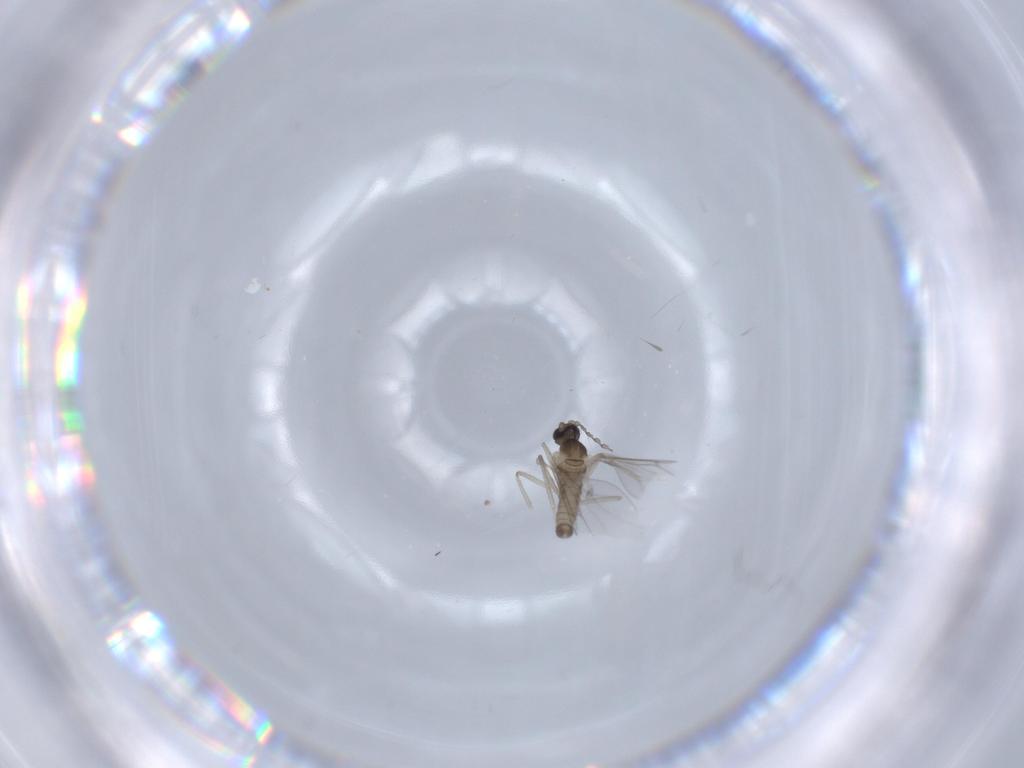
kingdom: Animalia
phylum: Arthropoda
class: Insecta
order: Diptera
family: Cecidomyiidae
